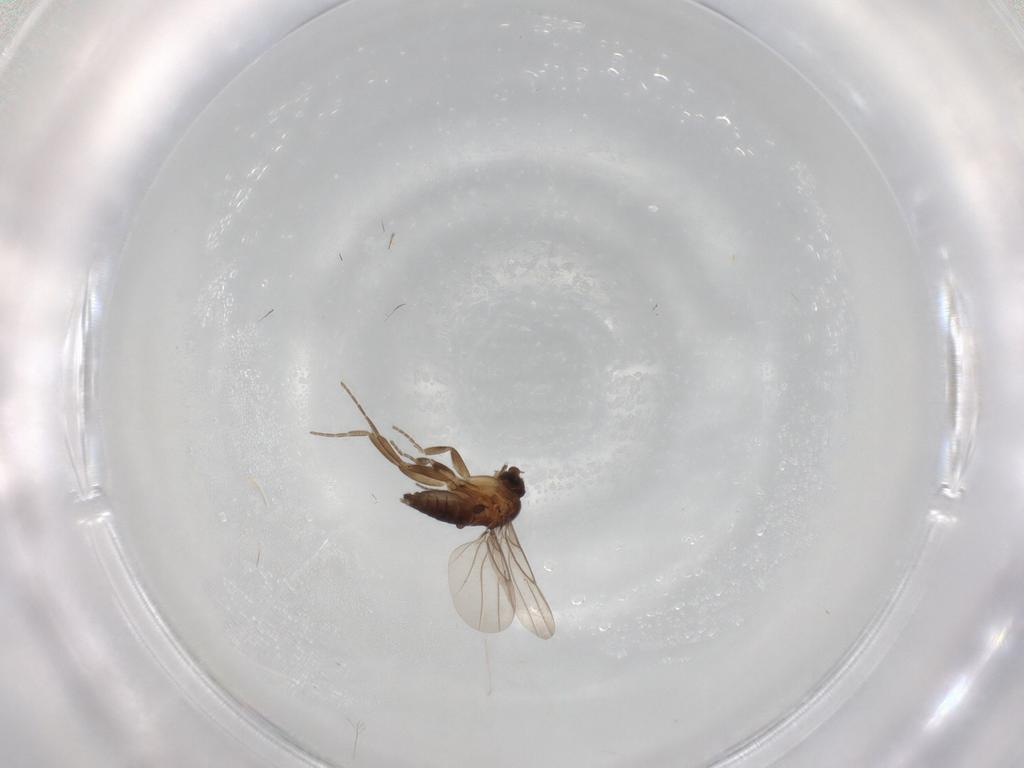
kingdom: Animalia
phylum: Arthropoda
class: Insecta
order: Diptera
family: Phoridae
